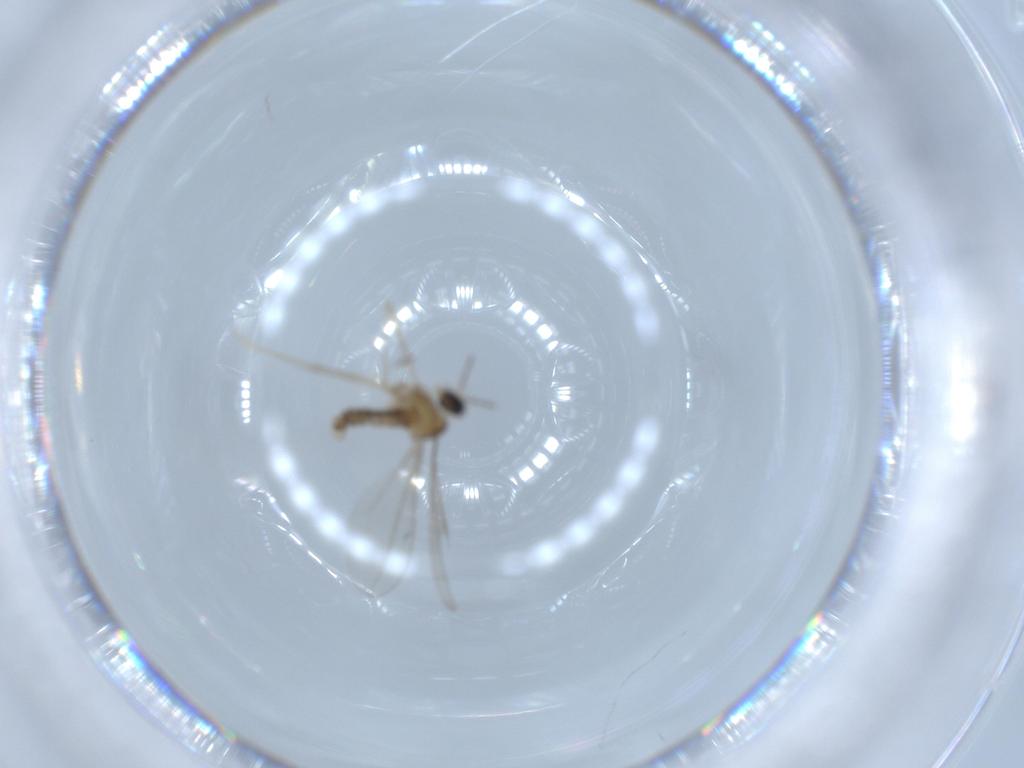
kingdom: Animalia
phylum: Arthropoda
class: Insecta
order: Diptera
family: Cecidomyiidae
